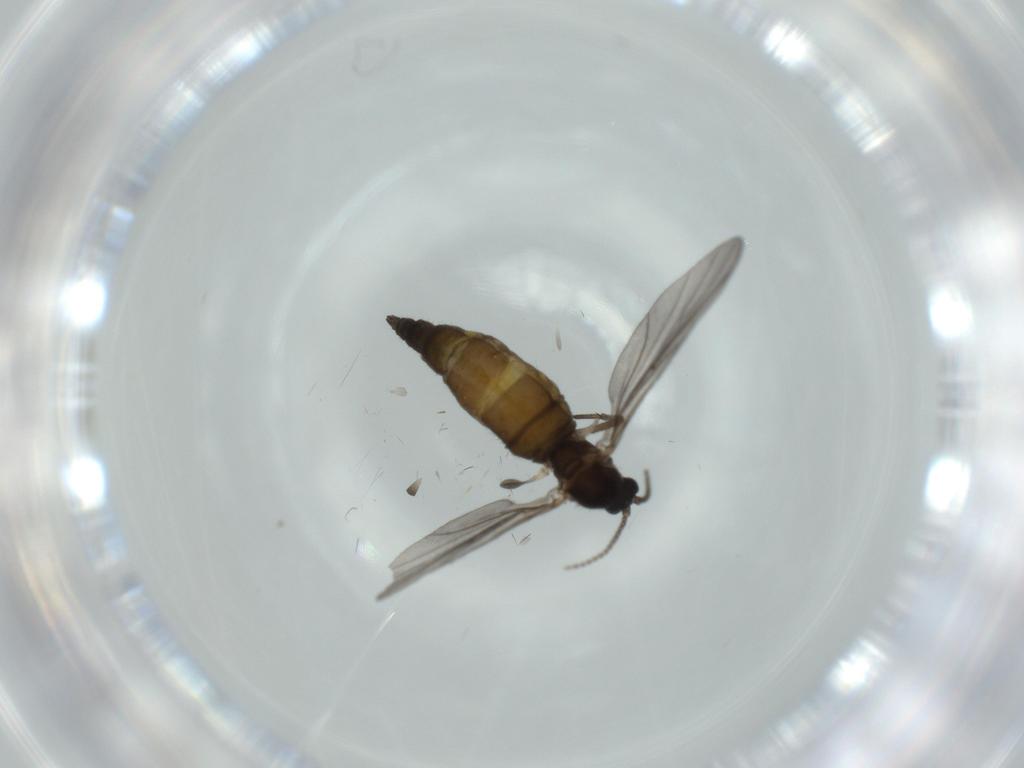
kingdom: Animalia
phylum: Arthropoda
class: Insecta
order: Diptera
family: Sciaridae
